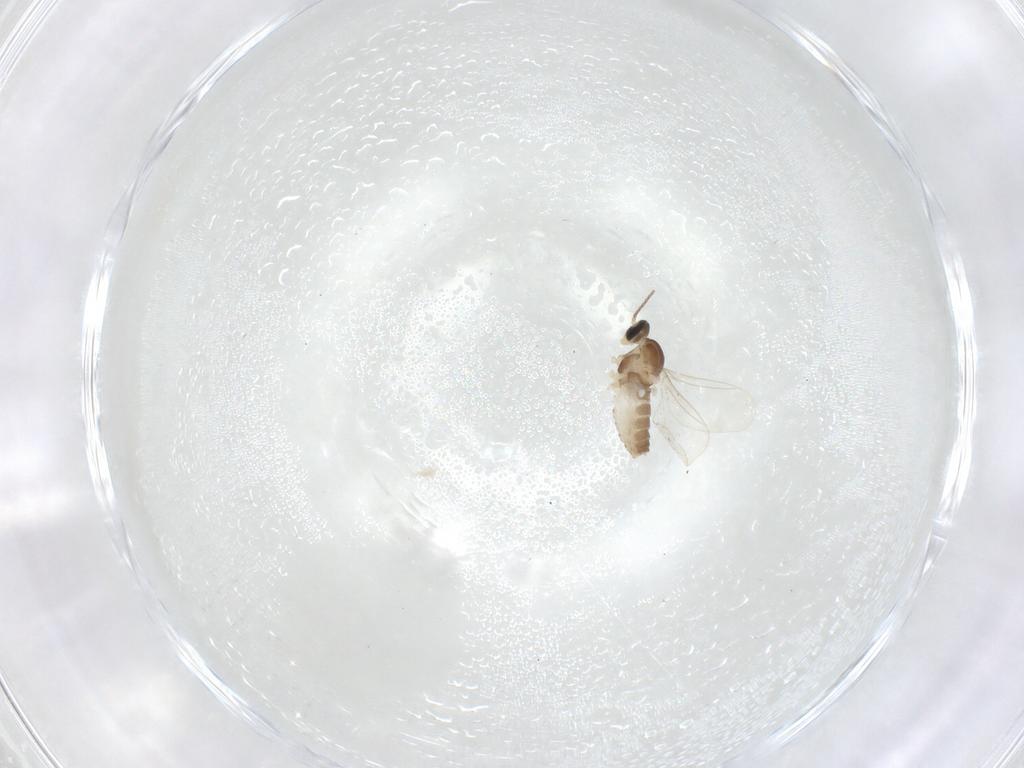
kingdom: Animalia
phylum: Arthropoda
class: Insecta
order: Diptera
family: Cecidomyiidae
